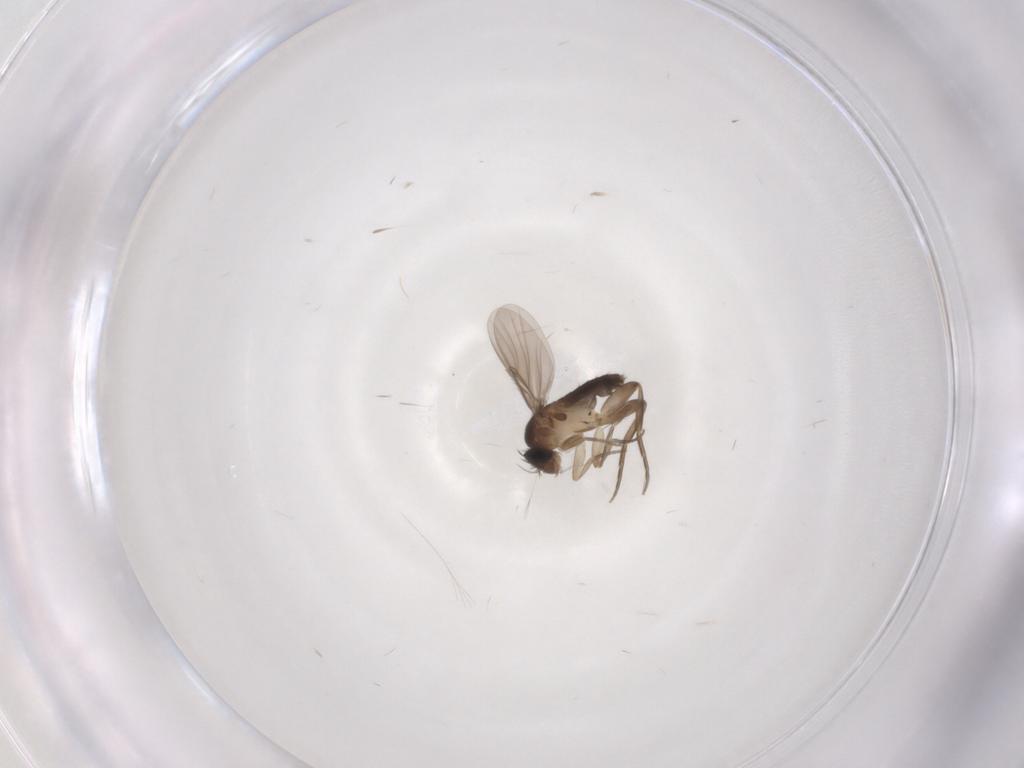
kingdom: Animalia
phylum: Arthropoda
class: Insecta
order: Diptera
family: Phoridae
